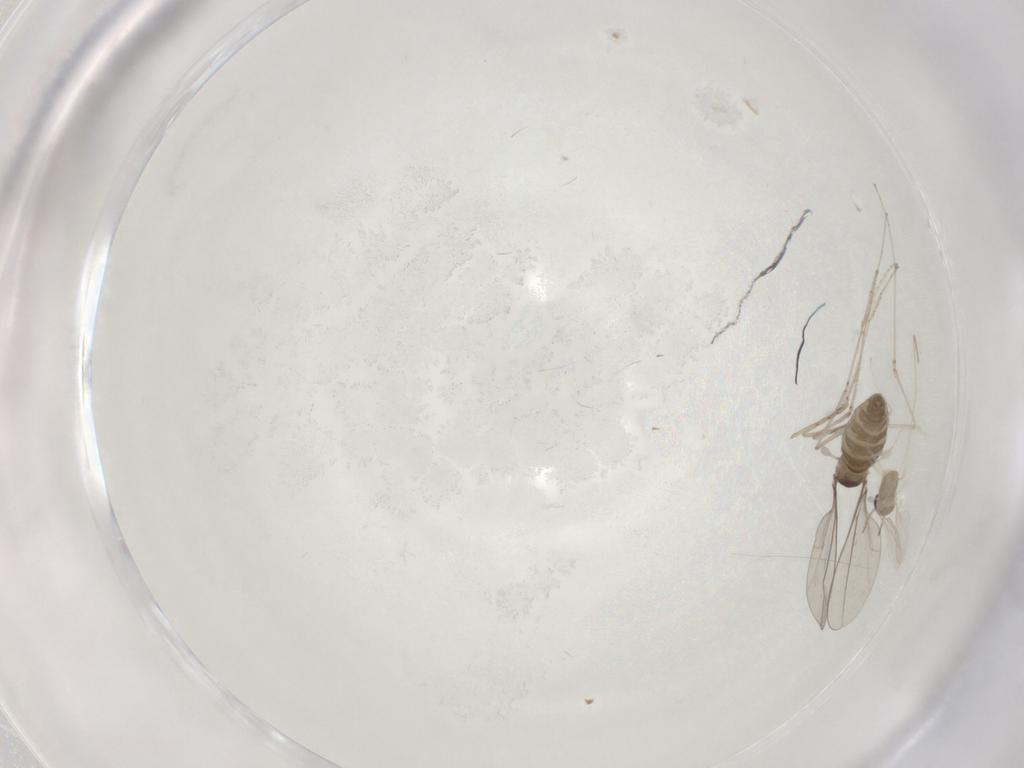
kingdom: Animalia
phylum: Arthropoda
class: Insecta
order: Diptera
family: Cecidomyiidae
